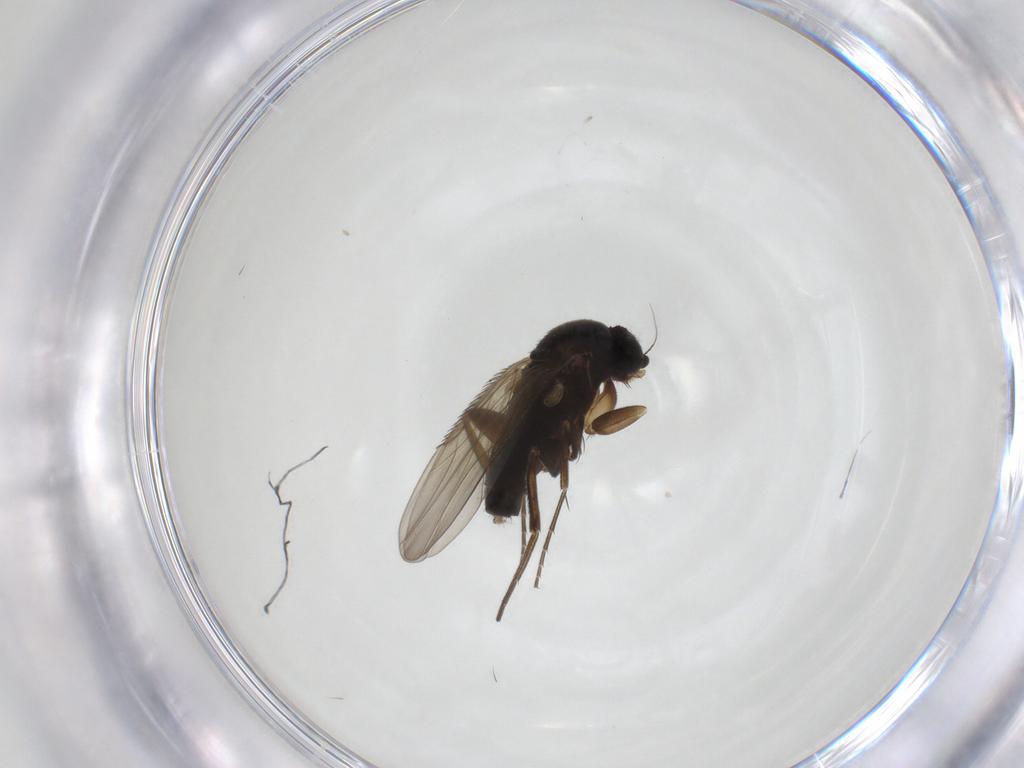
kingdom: Animalia
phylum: Arthropoda
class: Insecta
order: Diptera
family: Phoridae
